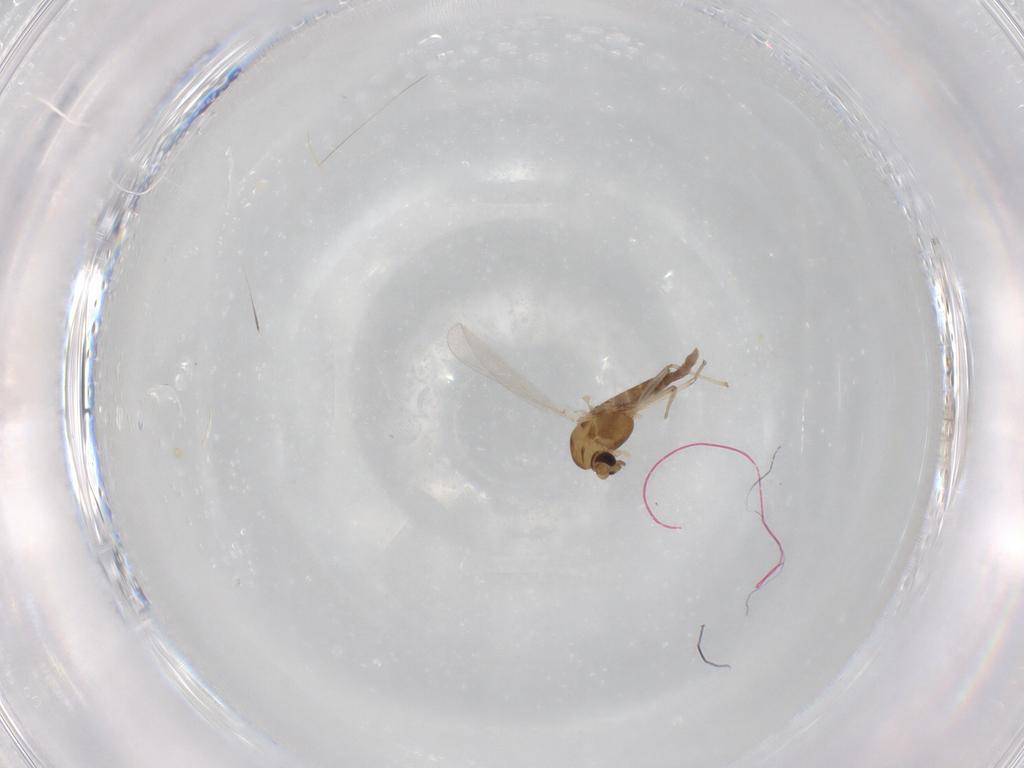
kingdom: Animalia
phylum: Arthropoda
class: Insecta
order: Diptera
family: Chironomidae
